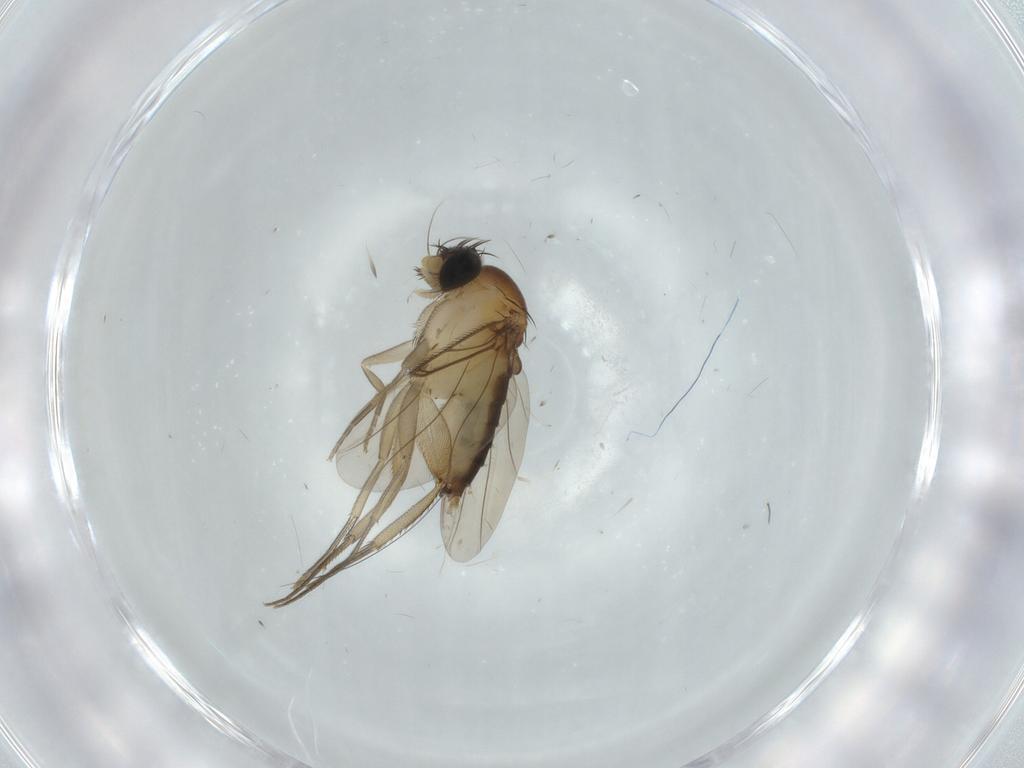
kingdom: Animalia
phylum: Arthropoda
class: Insecta
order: Diptera
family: Phoridae
